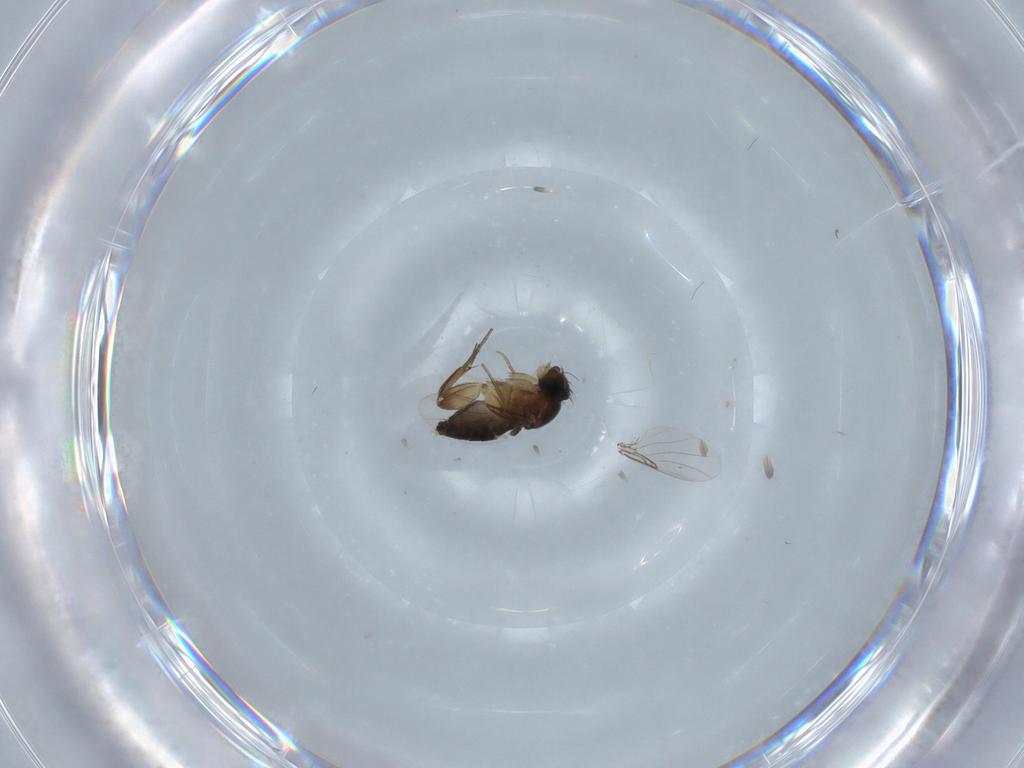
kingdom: Animalia
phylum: Arthropoda
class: Insecta
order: Diptera
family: Phoridae
